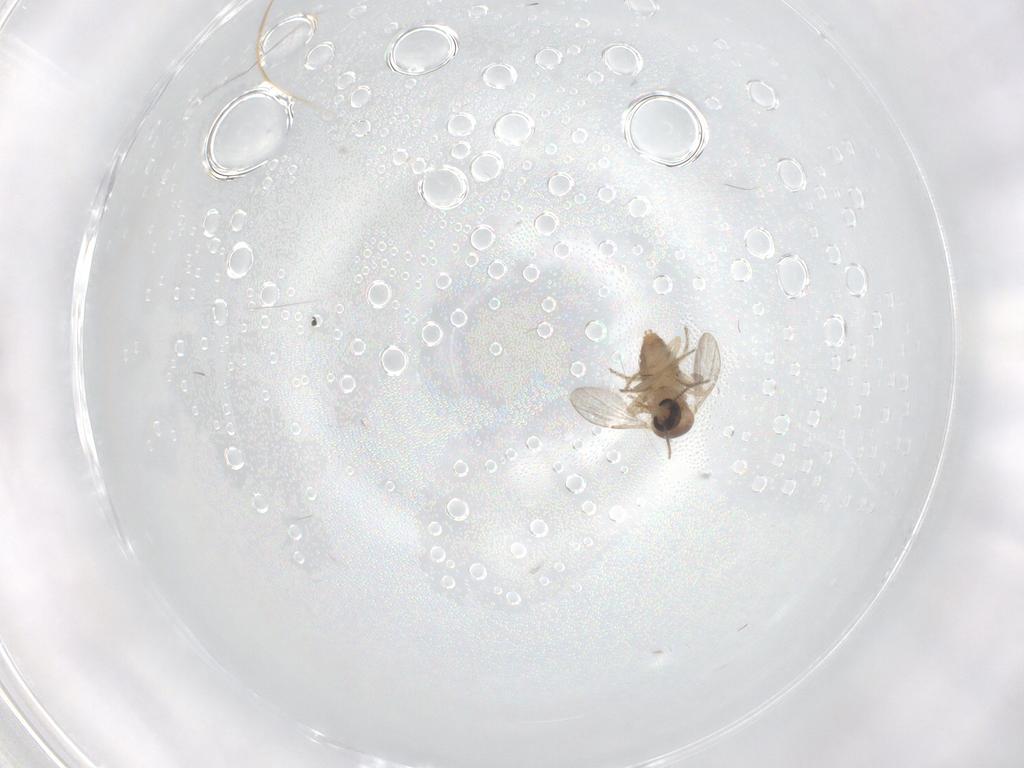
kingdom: Animalia
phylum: Arthropoda
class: Insecta
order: Diptera
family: Ceratopogonidae
